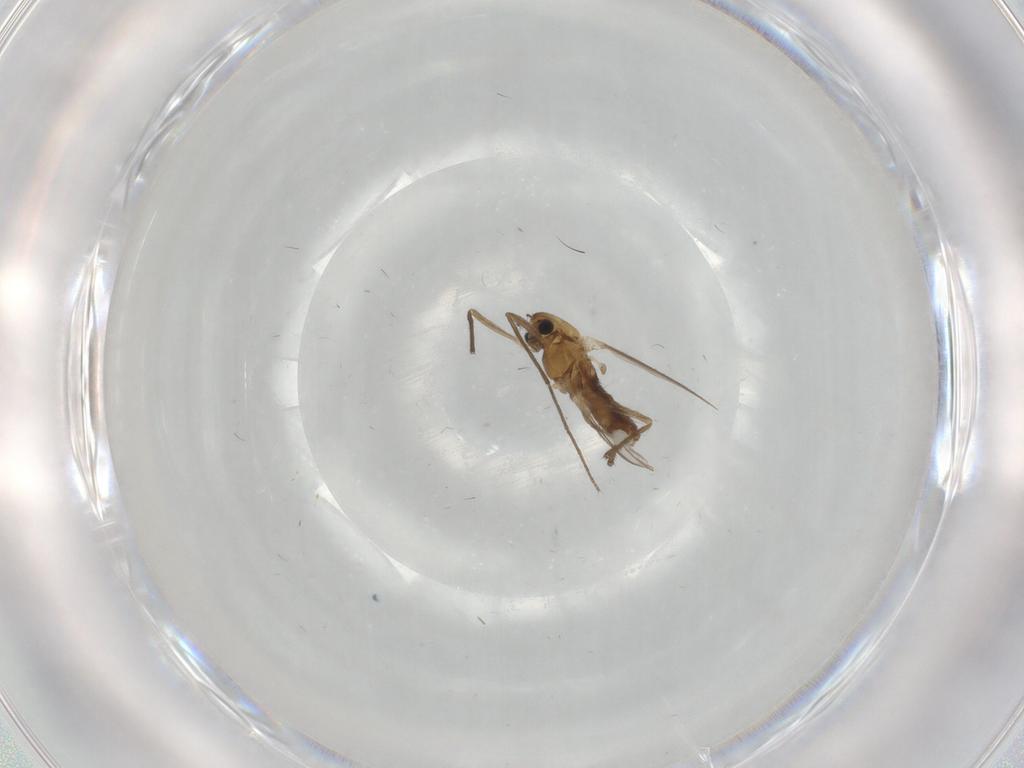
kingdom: Animalia
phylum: Arthropoda
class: Insecta
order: Diptera
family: Chironomidae
